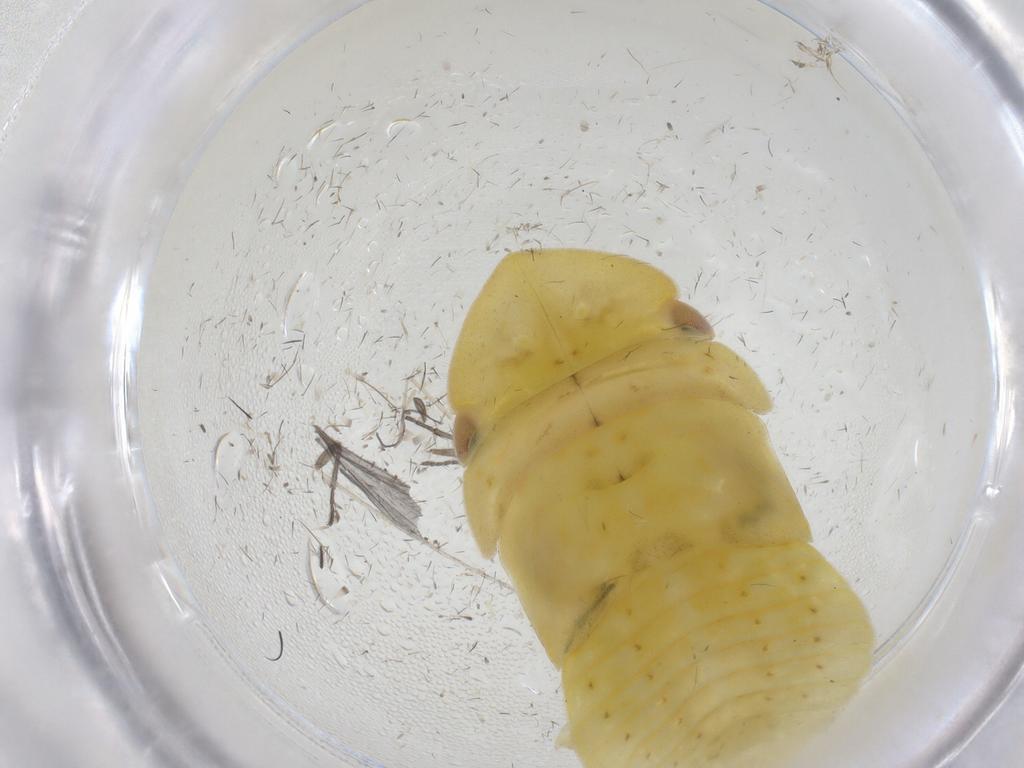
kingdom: Animalia
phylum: Arthropoda
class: Insecta
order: Hemiptera
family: Cicadellidae
